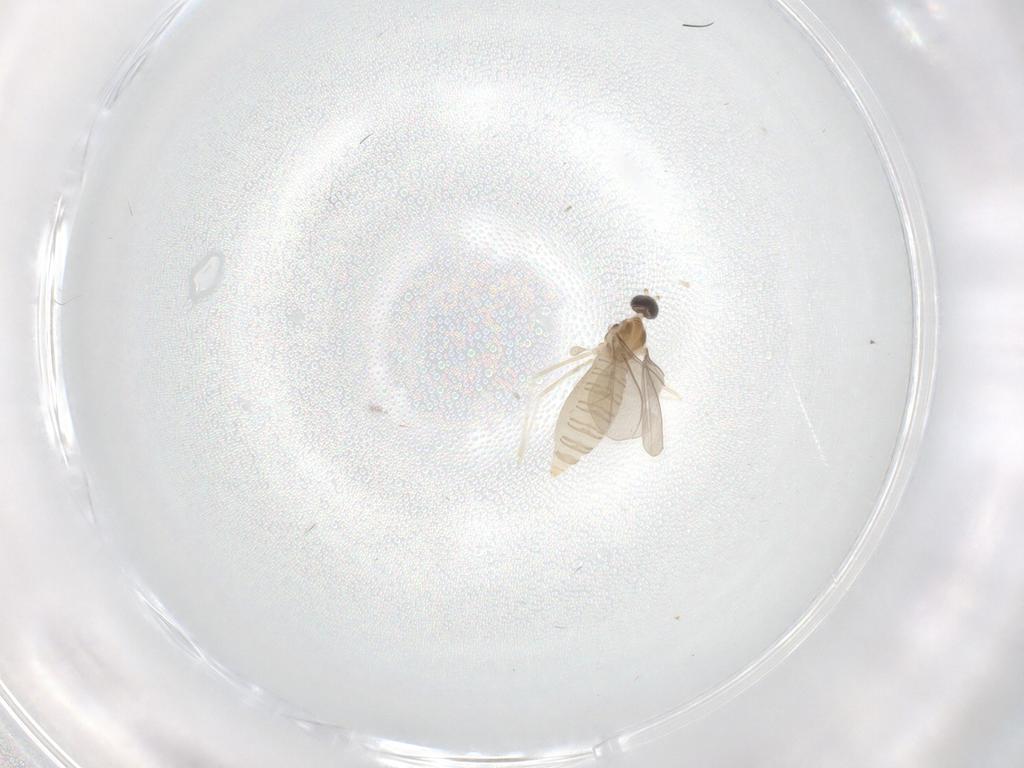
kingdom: Animalia
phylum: Arthropoda
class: Insecta
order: Diptera
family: Cecidomyiidae
